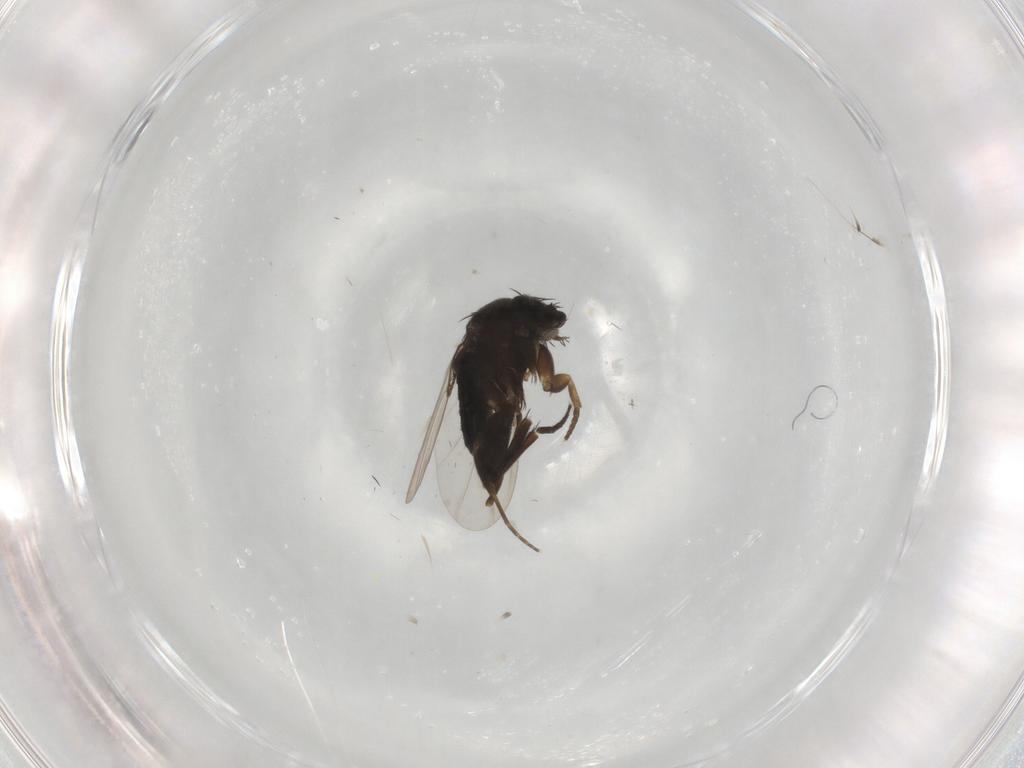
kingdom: Animalia
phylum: Arthropoda
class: Insecta
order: Diptera
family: Phoridae
